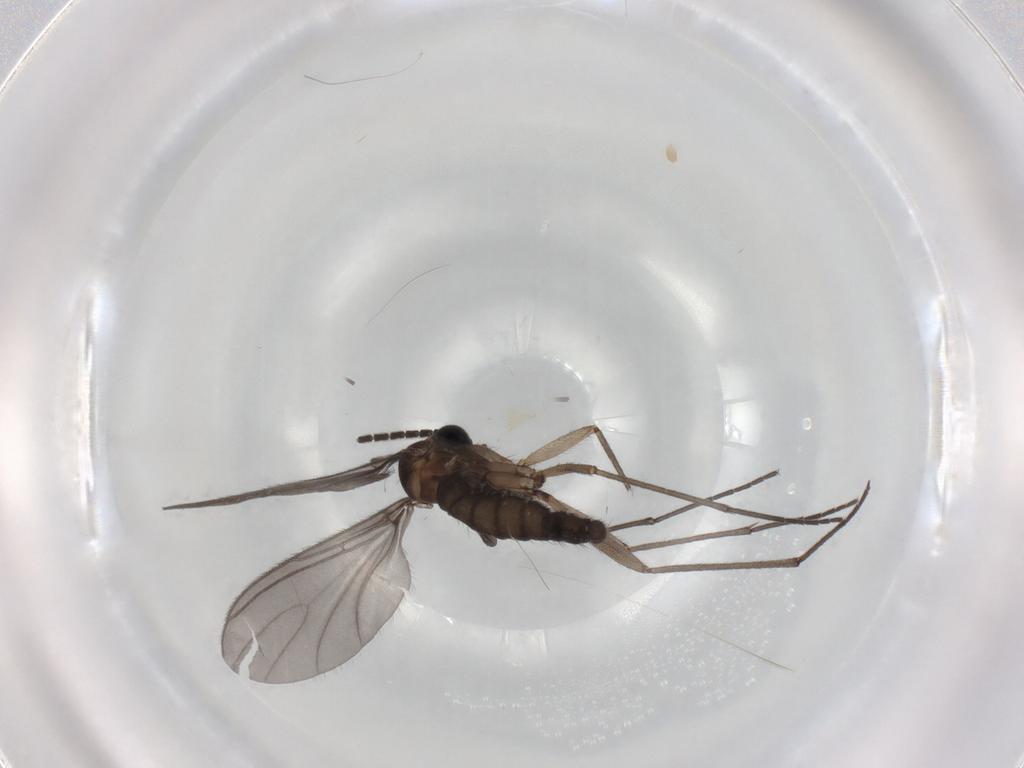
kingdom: Animalia
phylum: Arthropoda
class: Insecta
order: Diptera
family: Sciaridae
